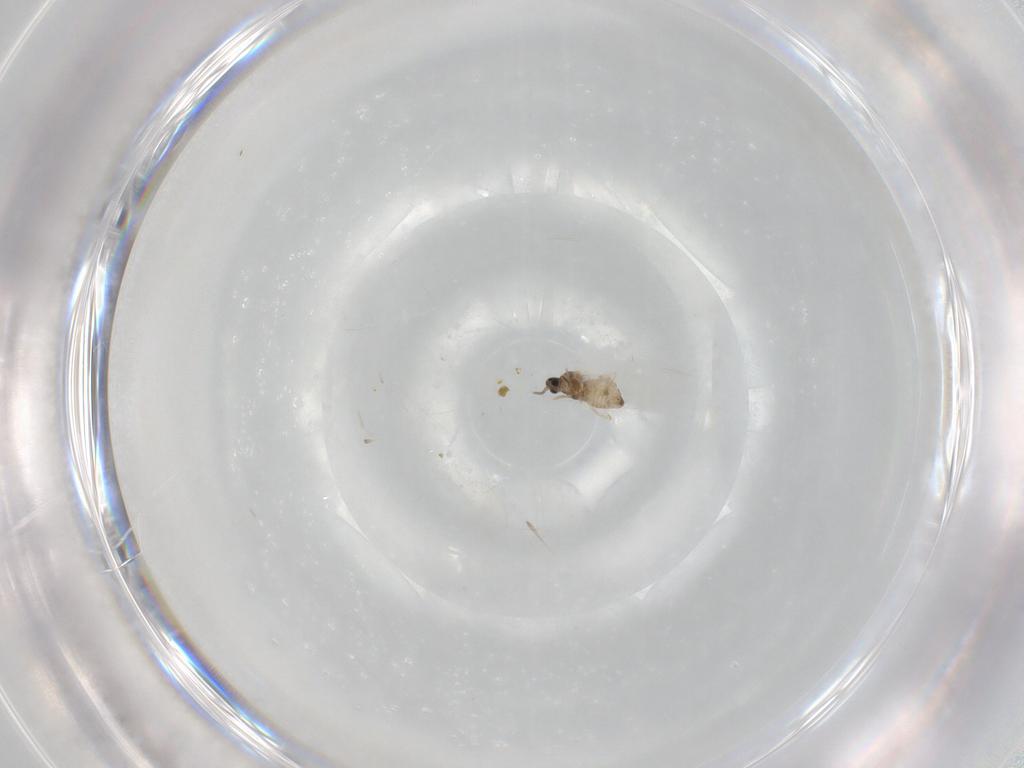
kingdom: Animalia
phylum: Arthropoda
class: Insecta
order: Diptera
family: Cecidomyiidae
